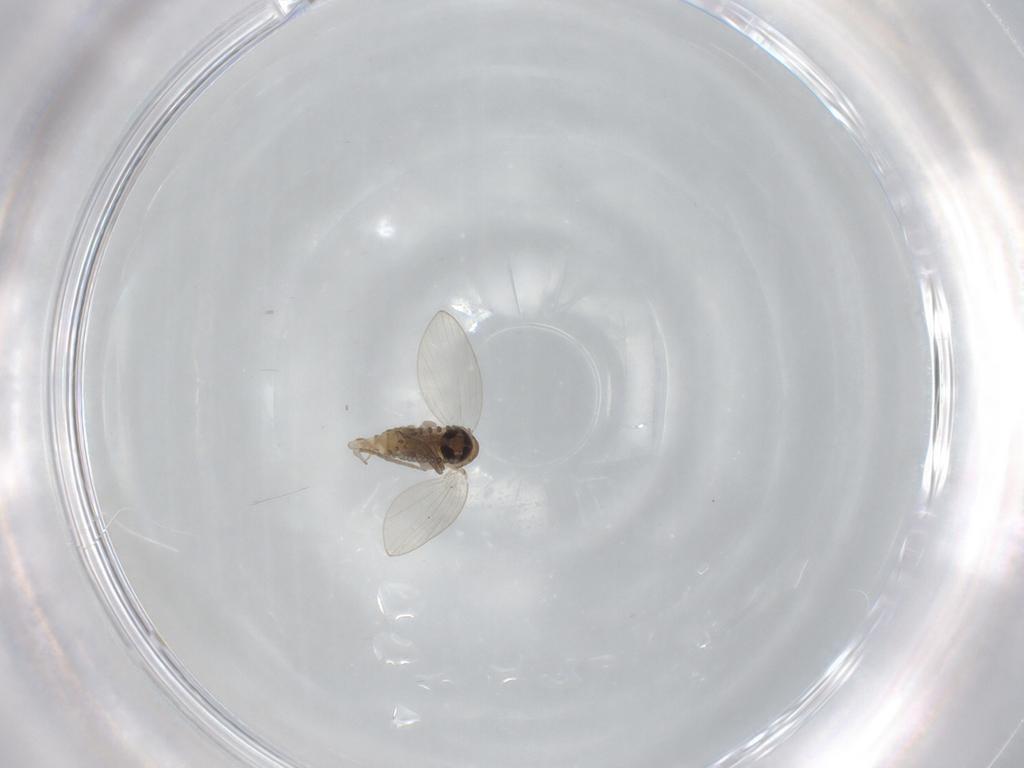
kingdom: Animalia
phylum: Arthropoda
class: Insecta
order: Diptera
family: Psychodidae
